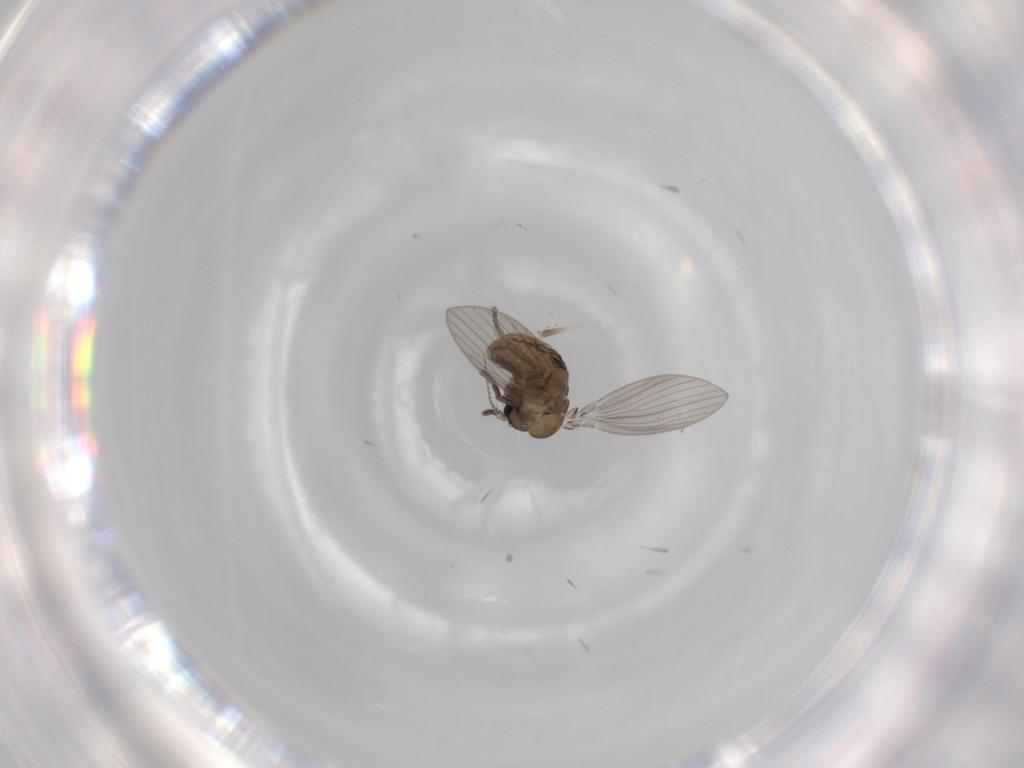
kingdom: Animalia
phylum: Arthropoda
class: Insecta
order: Diptera
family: Psychodidae
